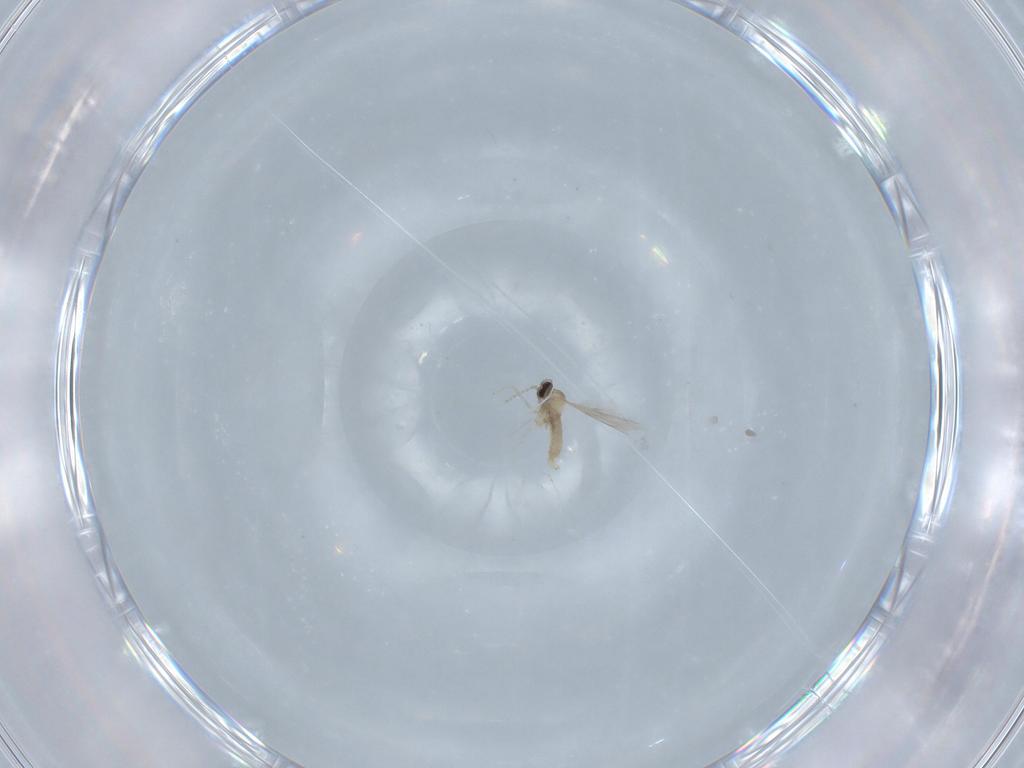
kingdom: Animalia
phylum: Arthropoda
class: Insecta
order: Diptera
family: Cecidomyiidae
